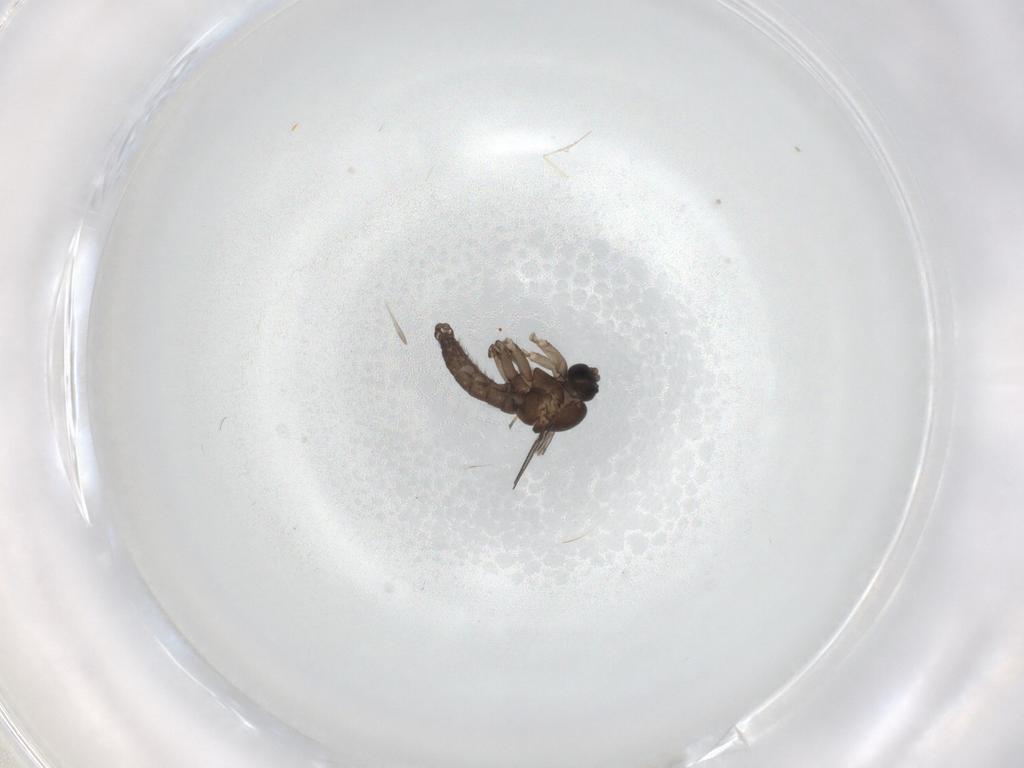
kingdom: Animalia
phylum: Arthropoda
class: Insecta
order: Diptera
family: Sciaridae
